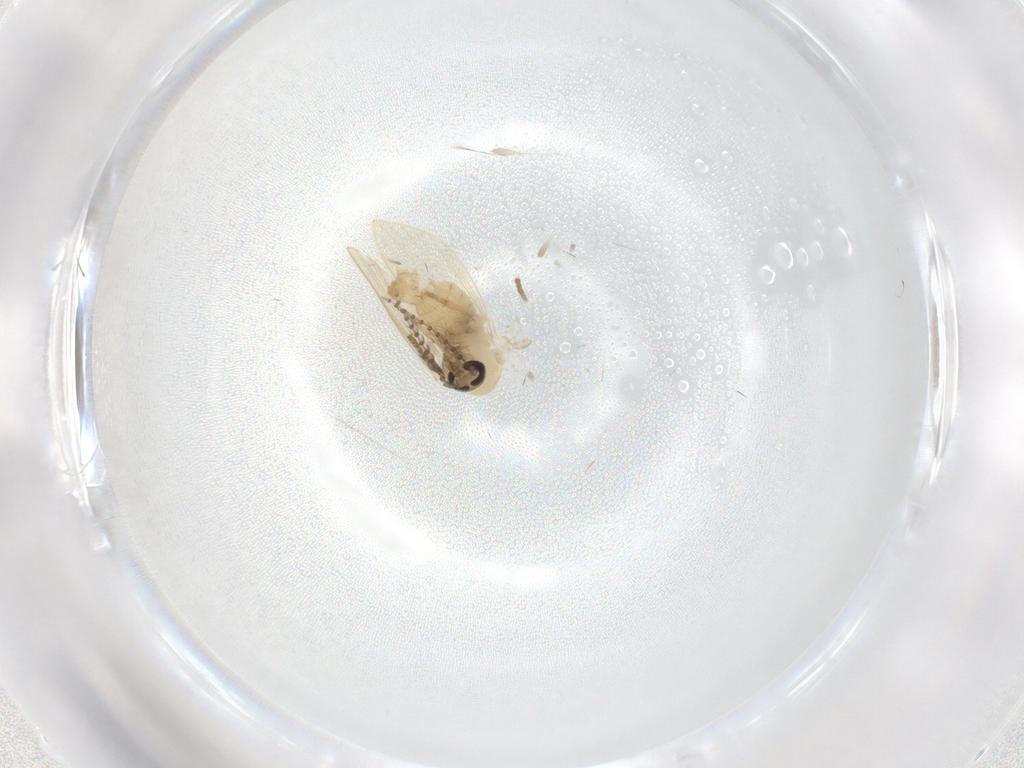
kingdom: Animalia
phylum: Arthropoda
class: Insecta
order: Diptera
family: Psychodidae
